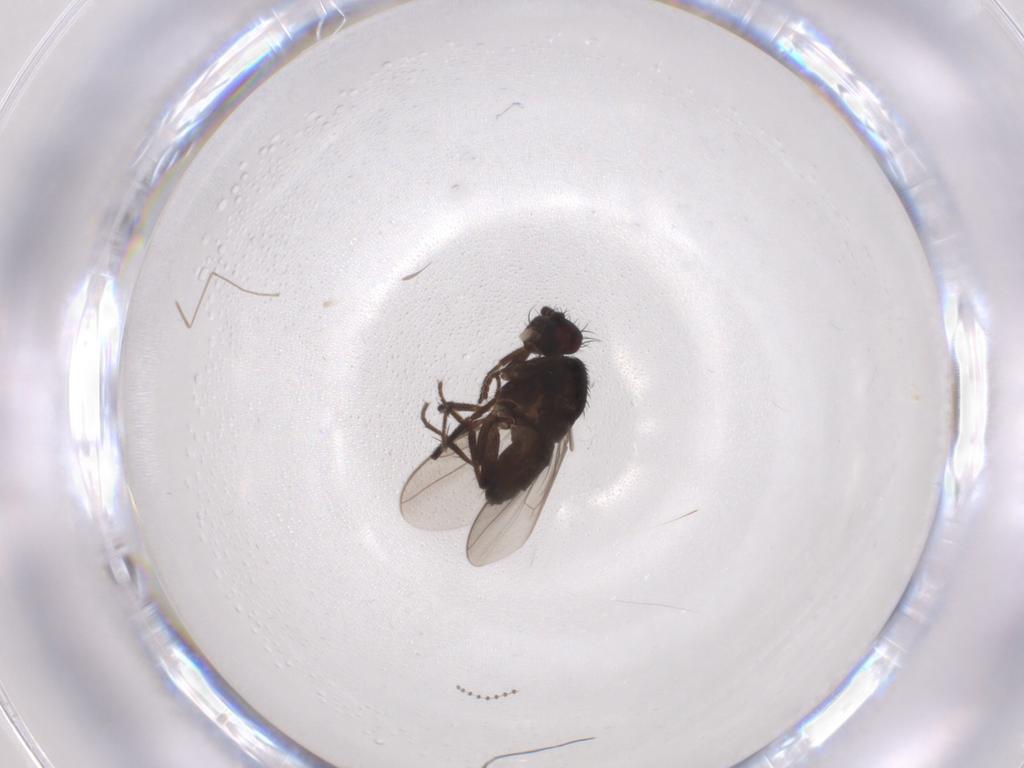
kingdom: Animalia
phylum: Arthropoda
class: Insecta
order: Diptera
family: Sphaeroceridae
